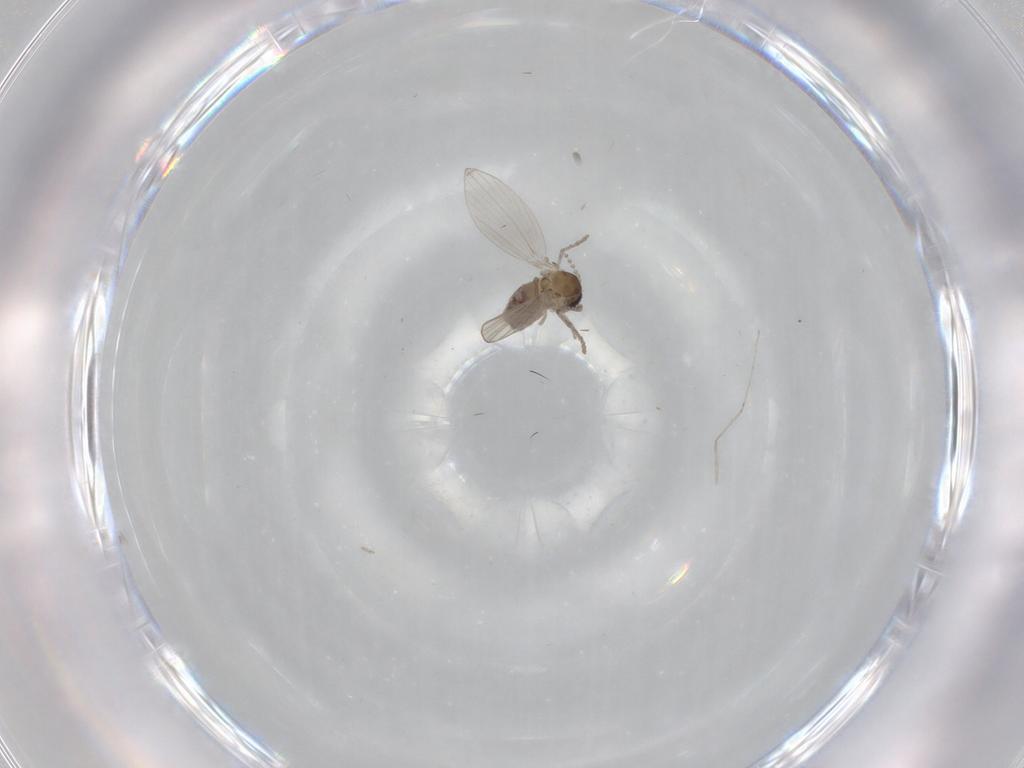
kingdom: Animalia
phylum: Arthropoda
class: Insecta
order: Diptera
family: Psychodidae
